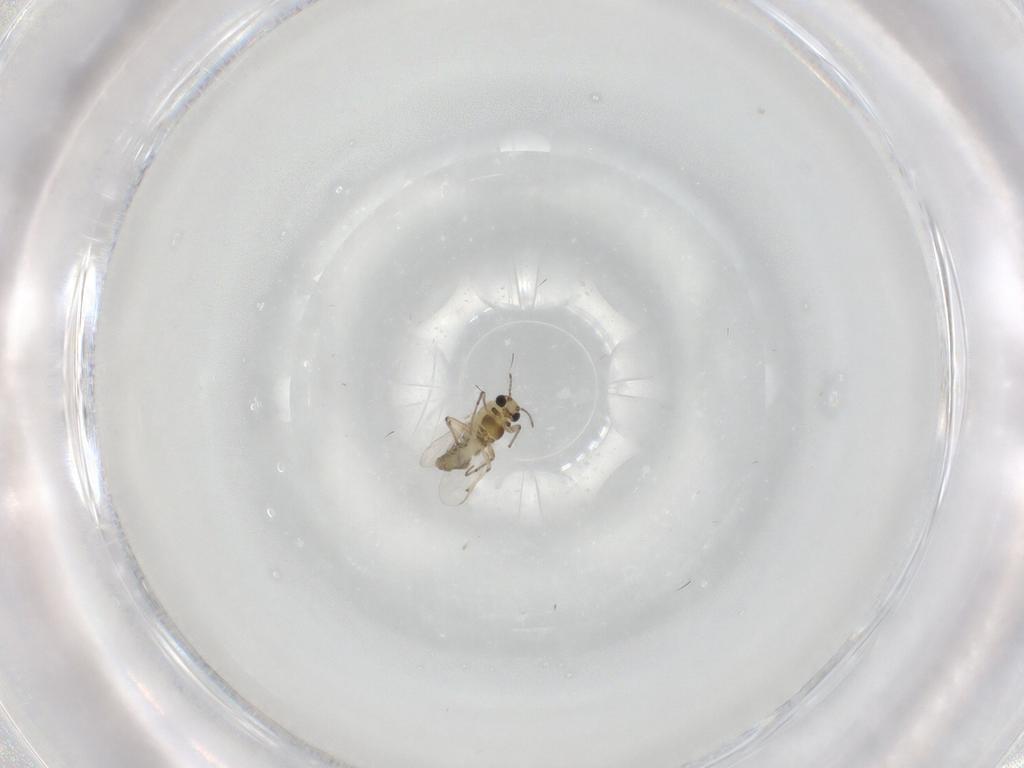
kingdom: Animalia
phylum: Arthropoda
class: Insecta
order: Diptera
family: Chironomidae
